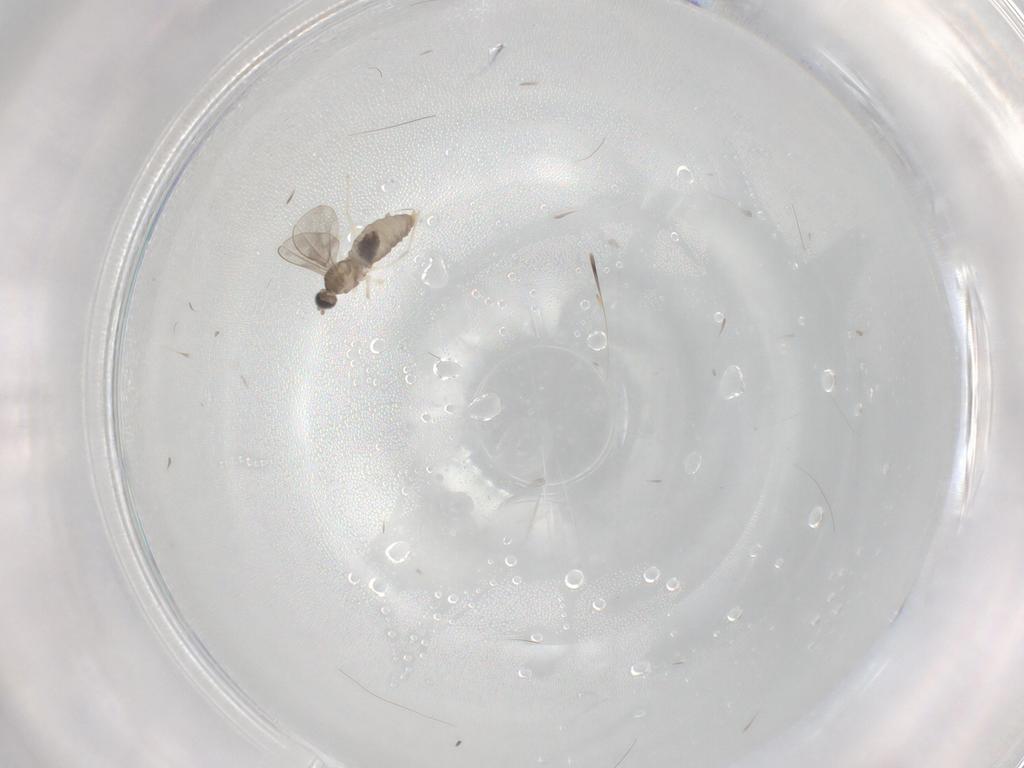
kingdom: Animalia
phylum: Arthropoda
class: Insecta
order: Diptera
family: Cecidomyiidae
